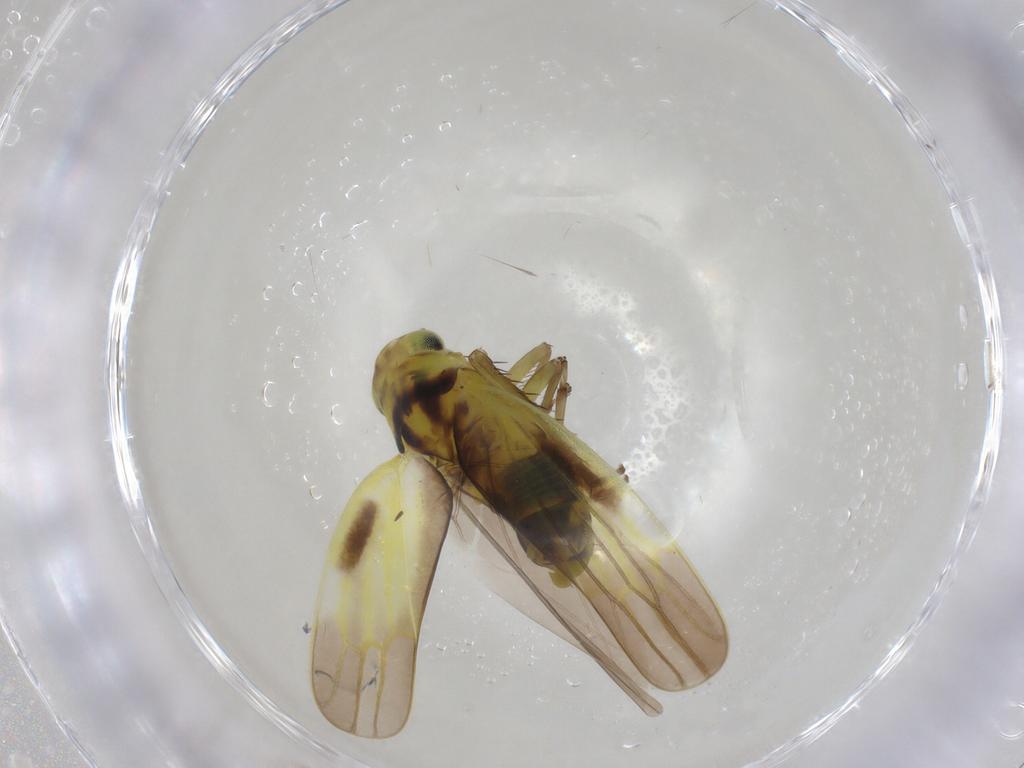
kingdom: Animalia
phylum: Arthropoda
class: Insecta
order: Hemiptera
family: Cicadellidae
